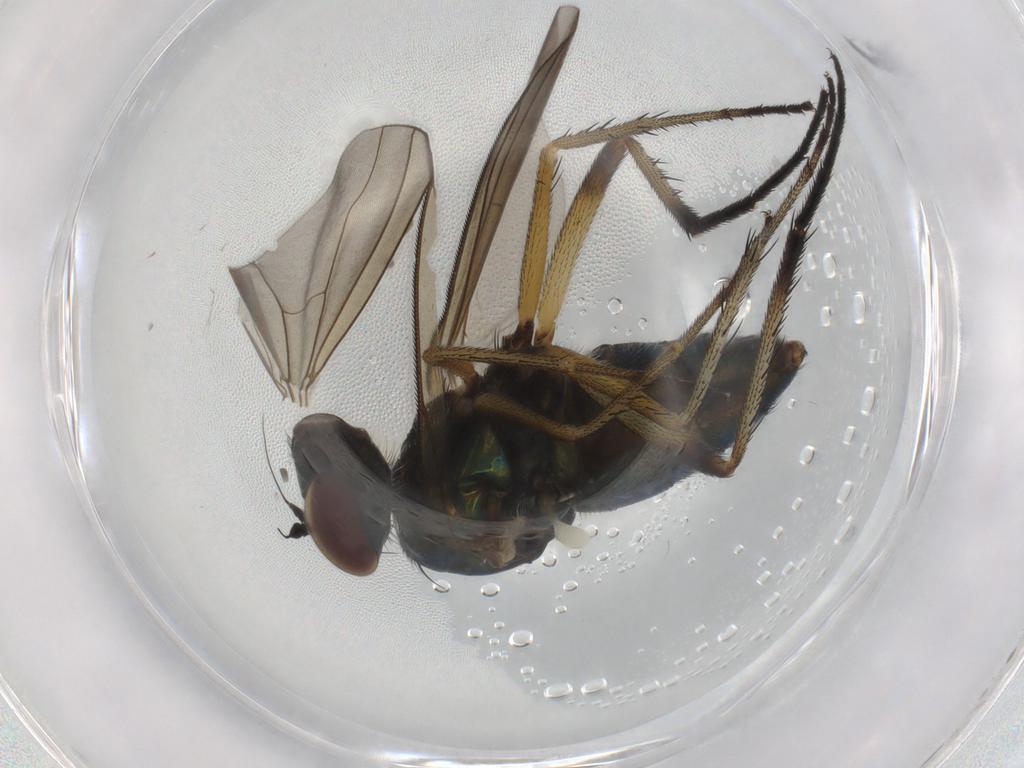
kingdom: Animalia
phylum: Arthropoda
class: Insecta
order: Diptera
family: Dolichopodidae
